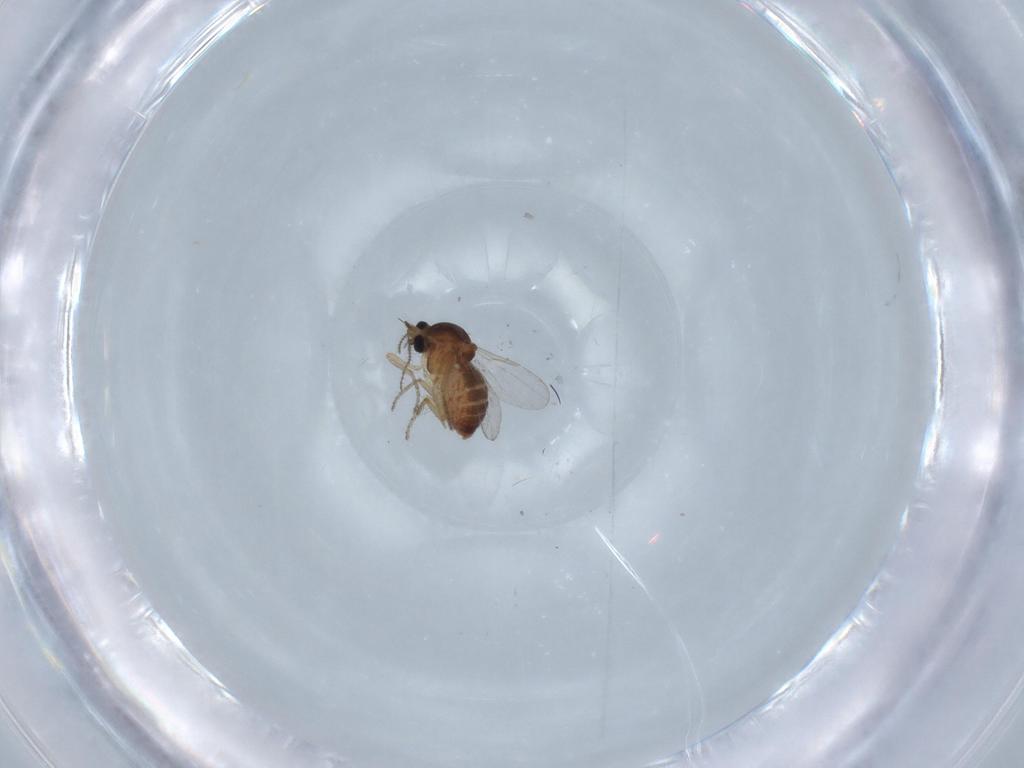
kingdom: Animalia
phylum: Arthropoda
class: Insecta
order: Diptera
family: Ceratopogonidae
